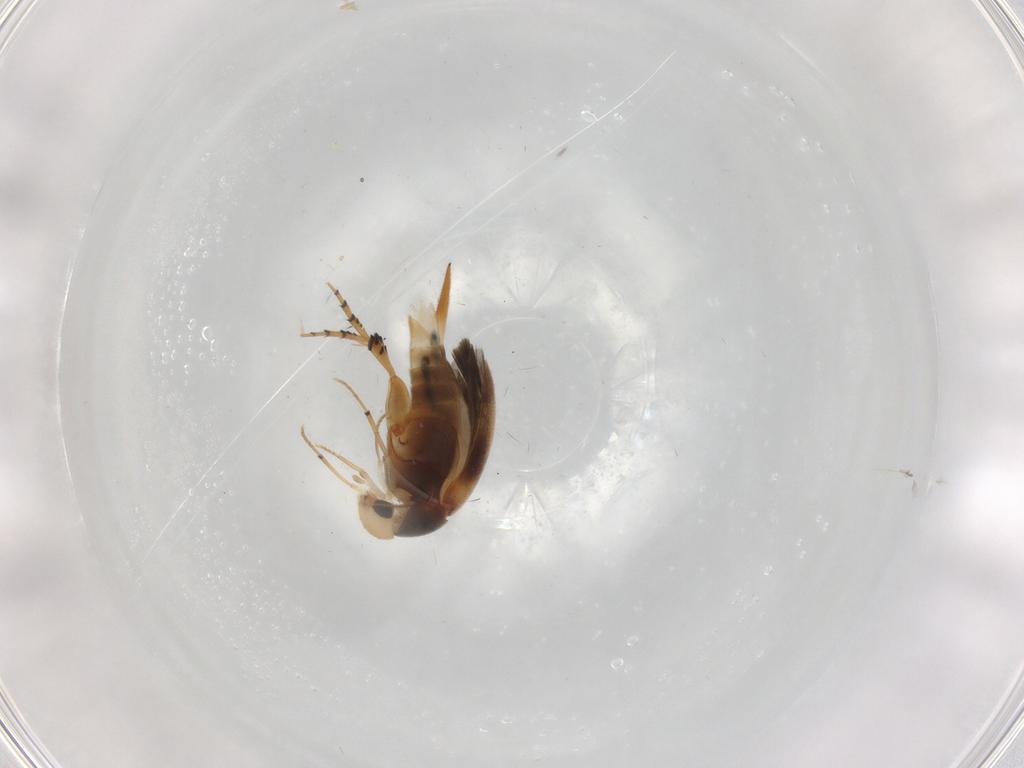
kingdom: Animalia
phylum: Arthropoda
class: Insecta
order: Coleoptera
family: Mordellidae
